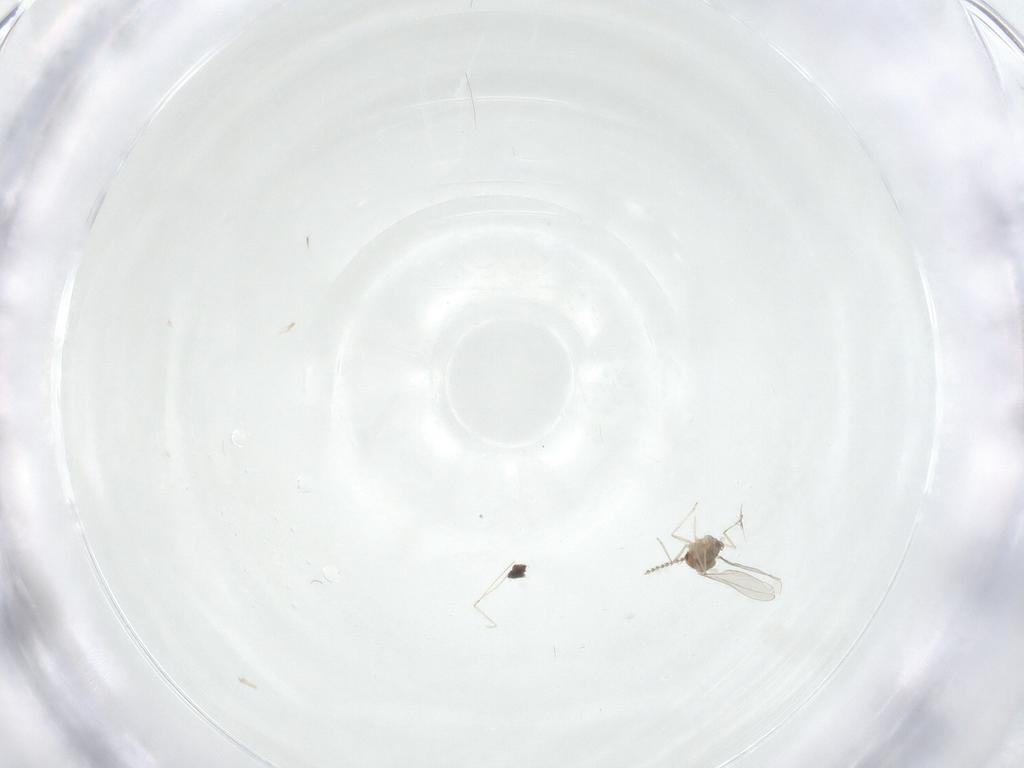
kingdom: Animalia
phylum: Arthropoda
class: Insecta
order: Diptera
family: Cecidomyiidae
